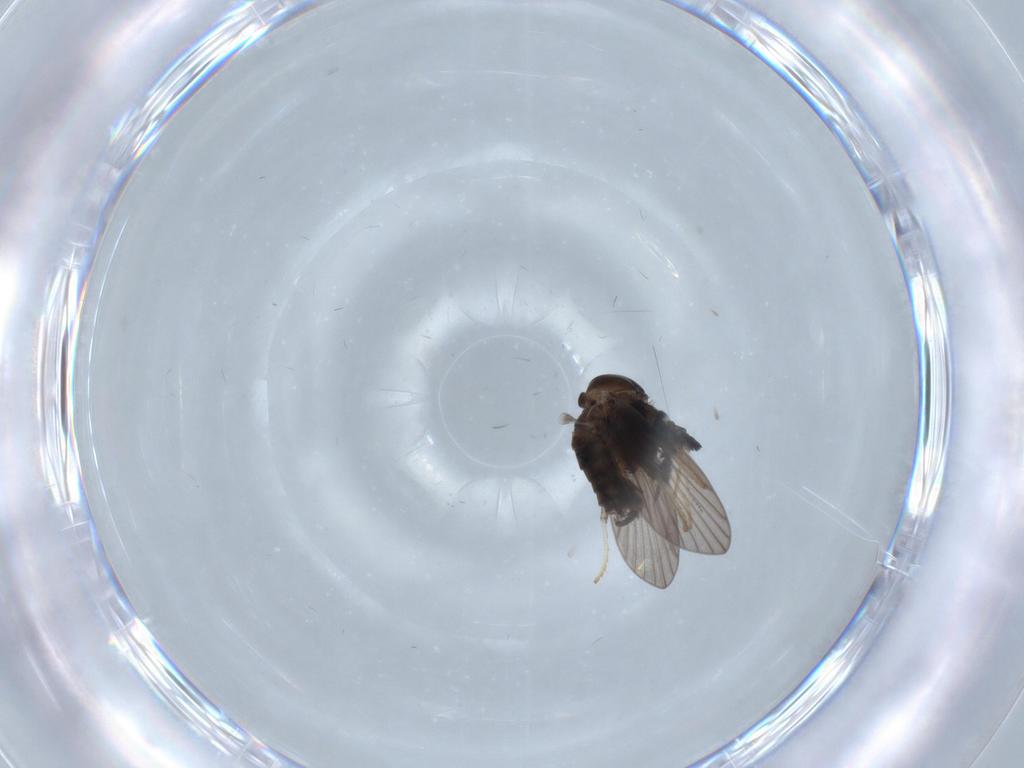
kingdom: Animalia
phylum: Arthropoda
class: Insecta
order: Diptera
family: Psychodidae
